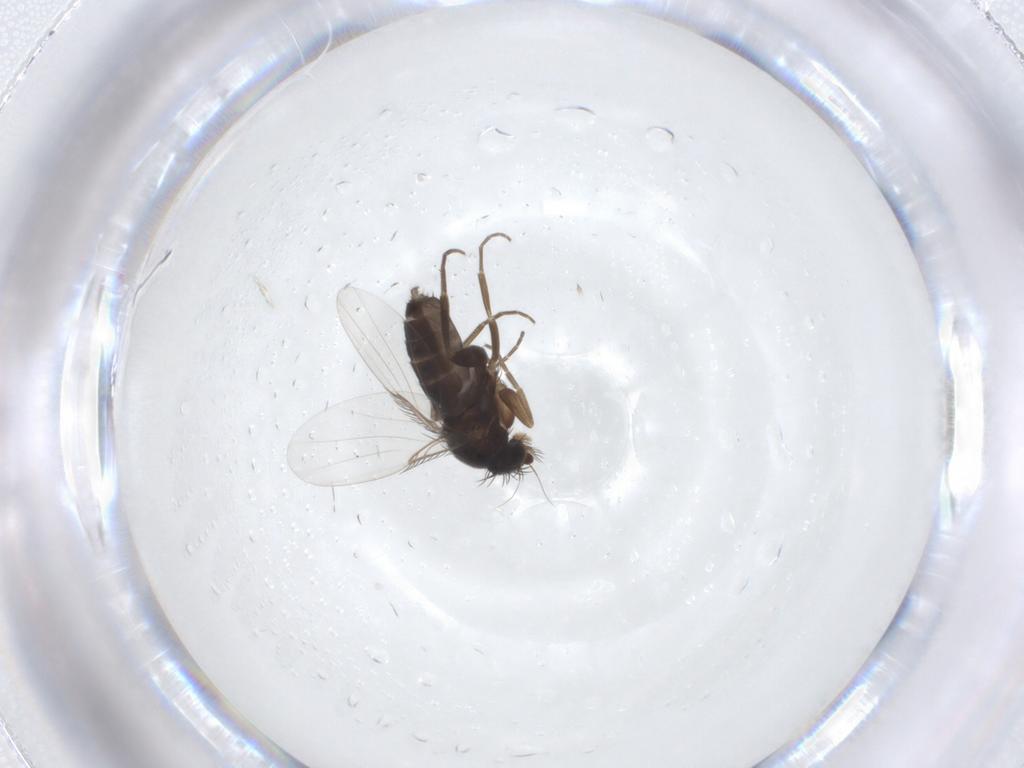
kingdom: Animalia
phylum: Arthropoda
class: Insecta
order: Diptera
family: Phoridae
